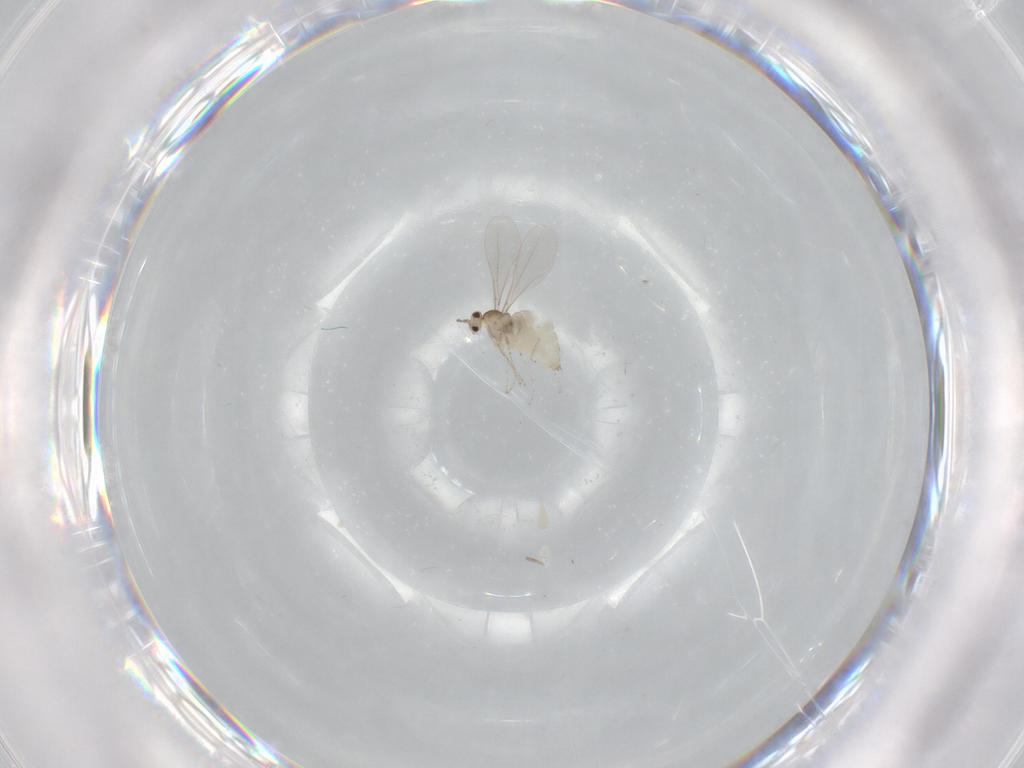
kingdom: Animalia
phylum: Arthropoda
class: Insecta
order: Diptera
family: Cecidomyiidae
